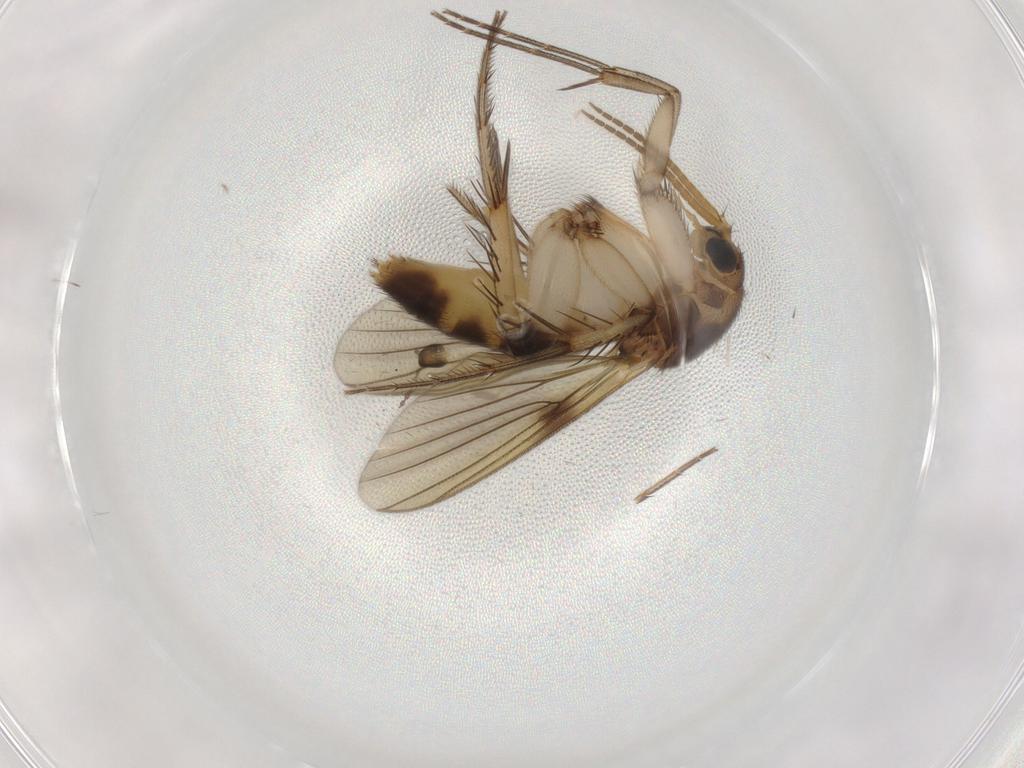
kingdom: Animalia
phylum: Arthropoda
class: Insecta
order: Diptera
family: Mycetophilidae
